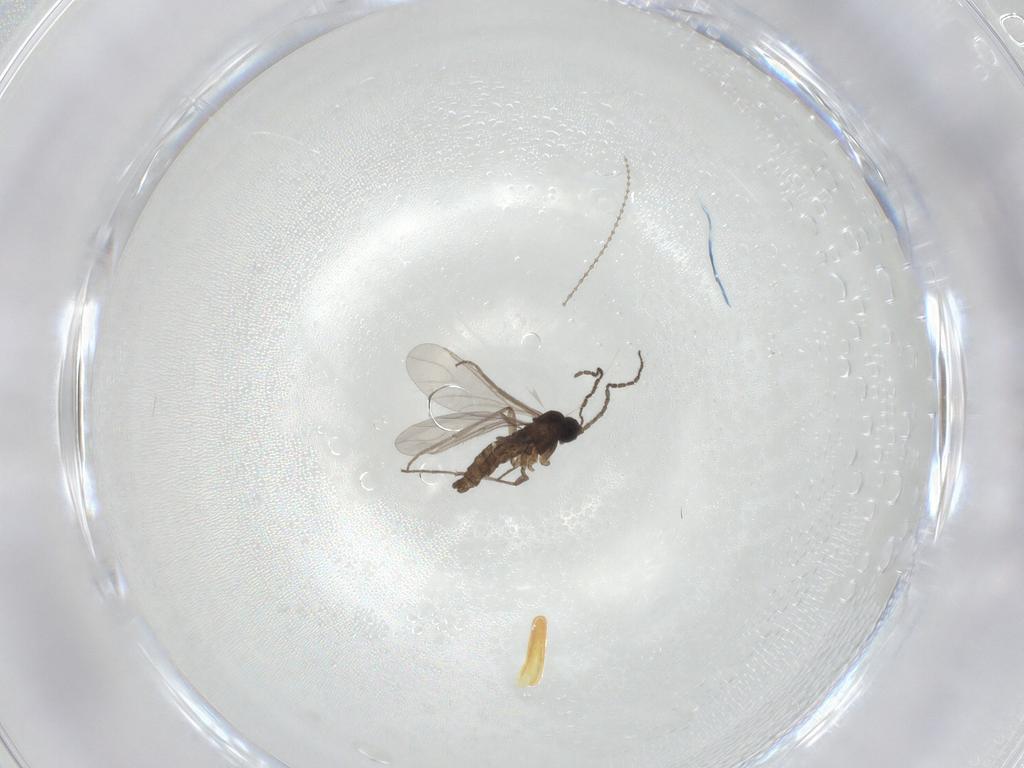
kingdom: Animalia
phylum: Arthropoda
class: Insecta
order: Diptera
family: Sciaridae
